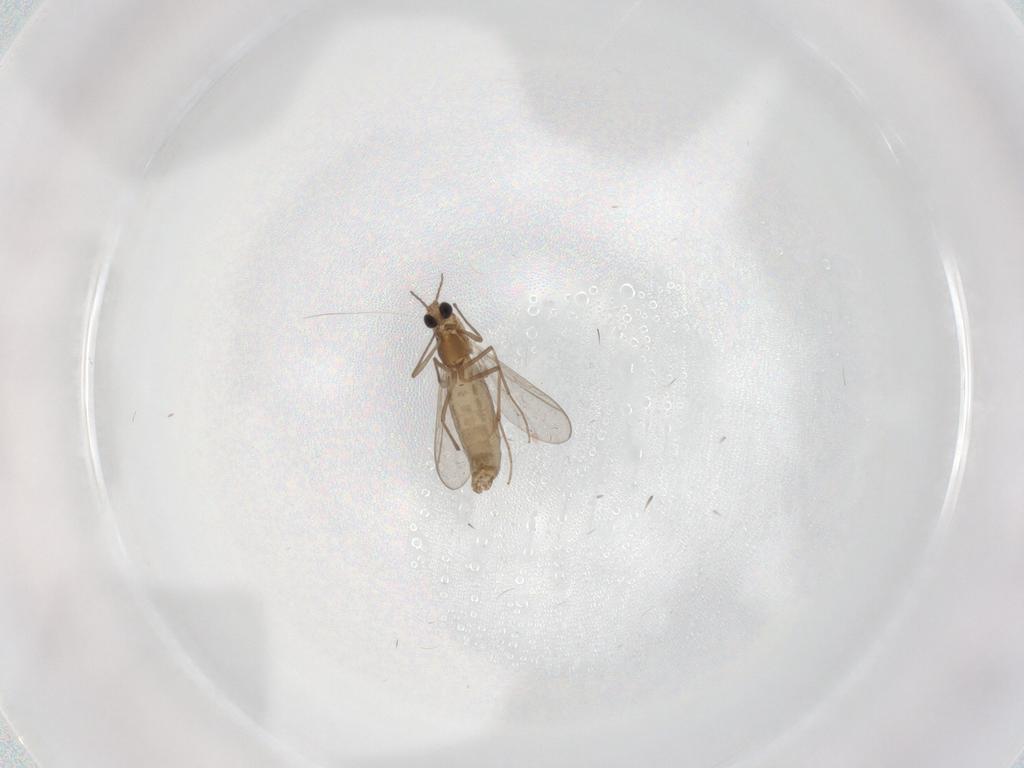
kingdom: Animalia
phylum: Arthropoda
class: Insecta
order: Diptera
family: Chironomidae
